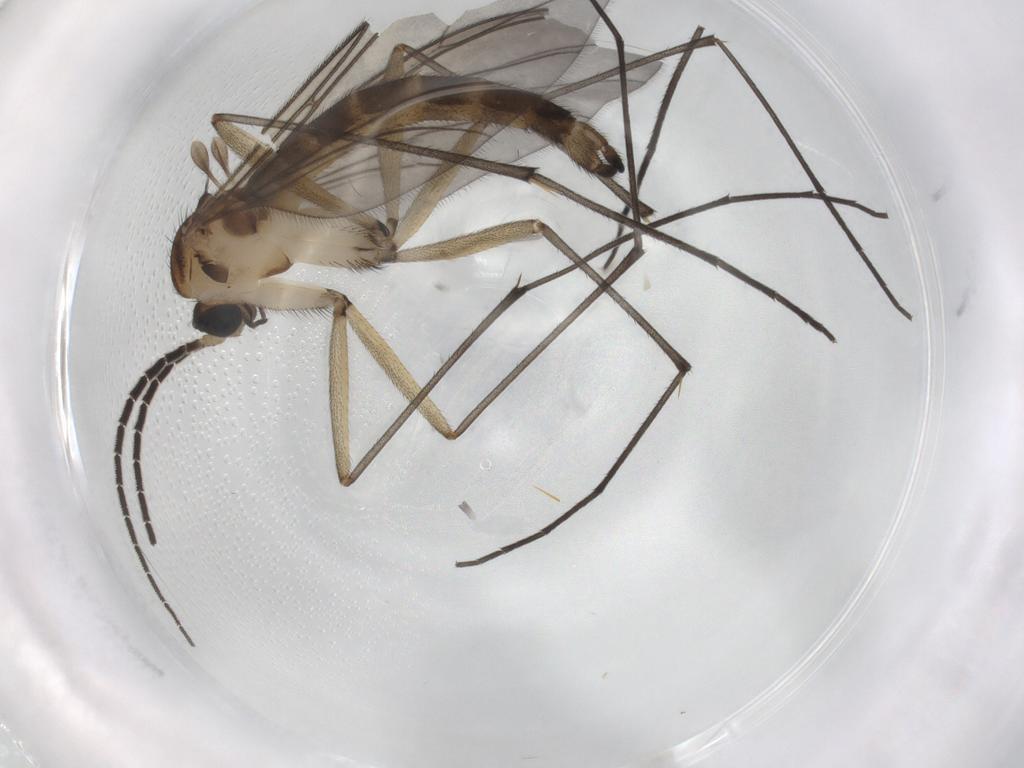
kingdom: Animalia
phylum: Arthropoda
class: Insecta
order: Diptera
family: Sciaridae
